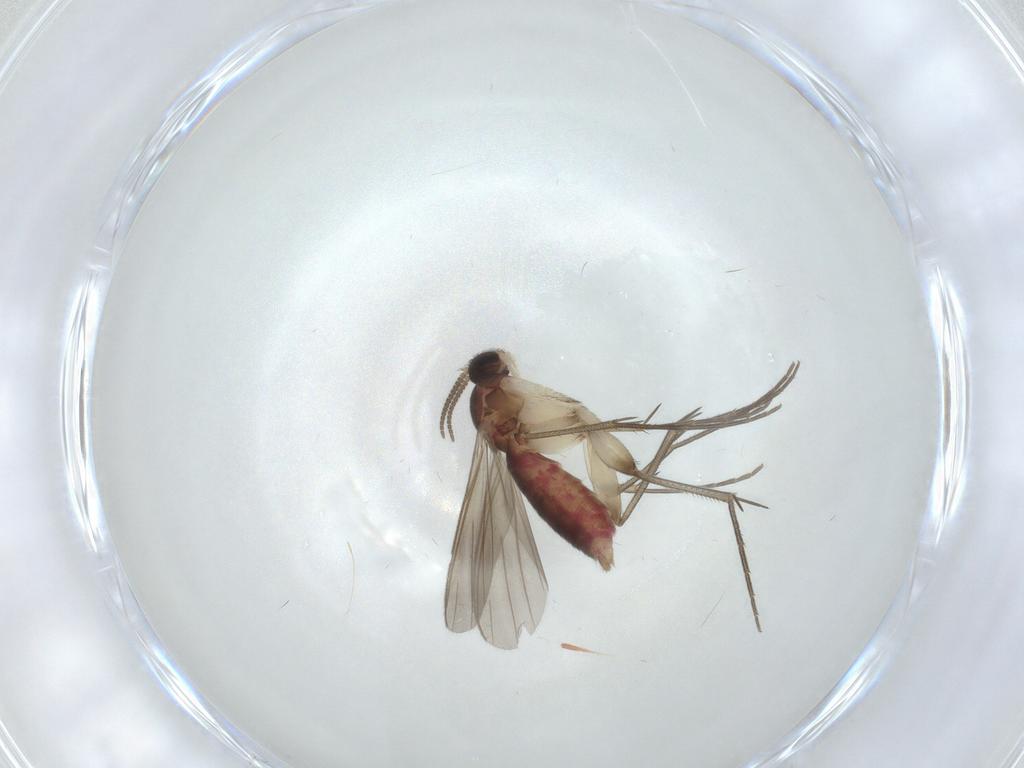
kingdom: Animalia
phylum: Arthropoda
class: Insecta
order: Diptera
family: Mycetophilidae
